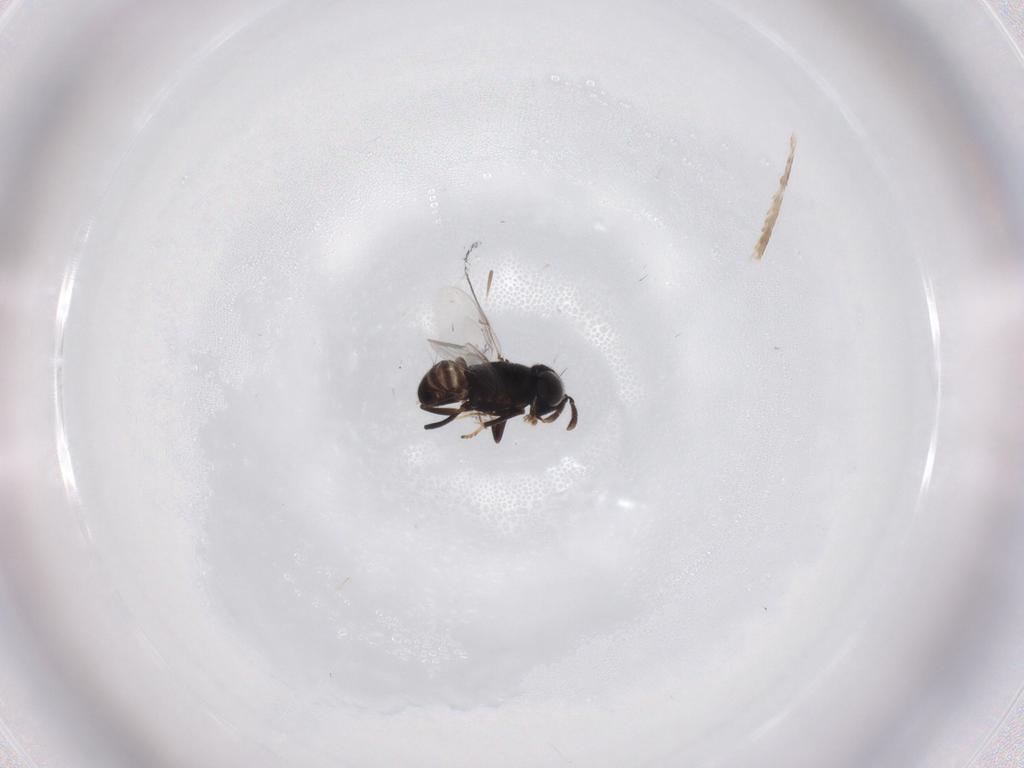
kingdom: Animalia
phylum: Arthropoda
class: Insecta
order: Hymenoptera
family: Encyrtidae
